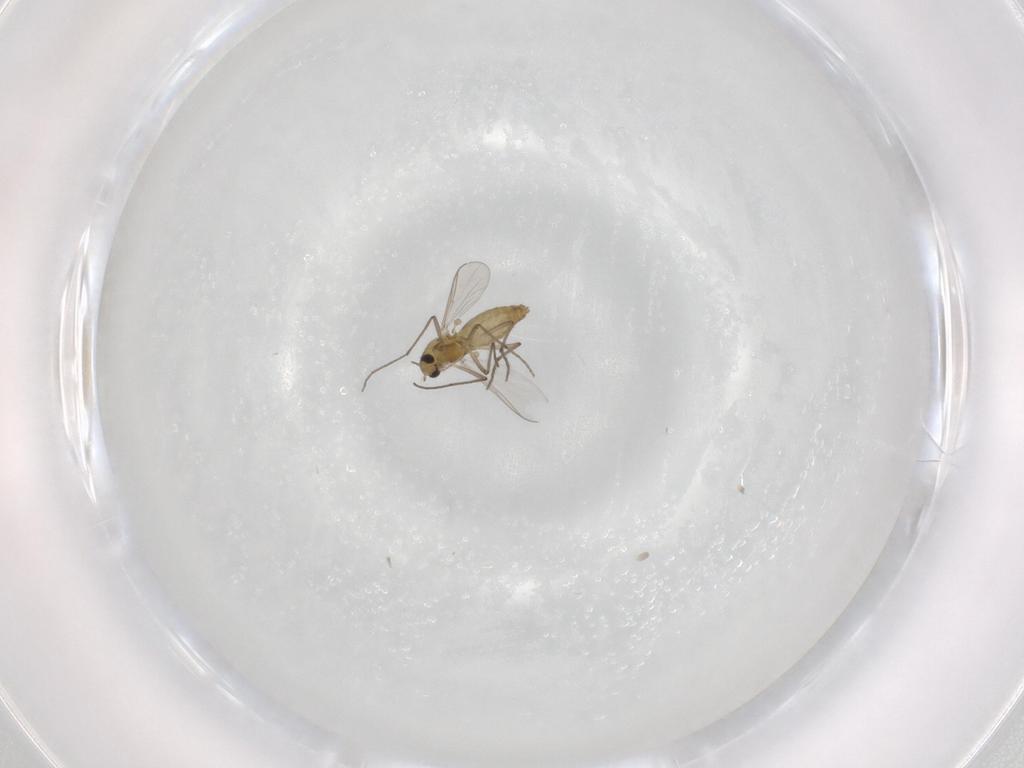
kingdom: Animalia
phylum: Arthropoda
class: Insecta
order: Diptera
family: Chironomidae
